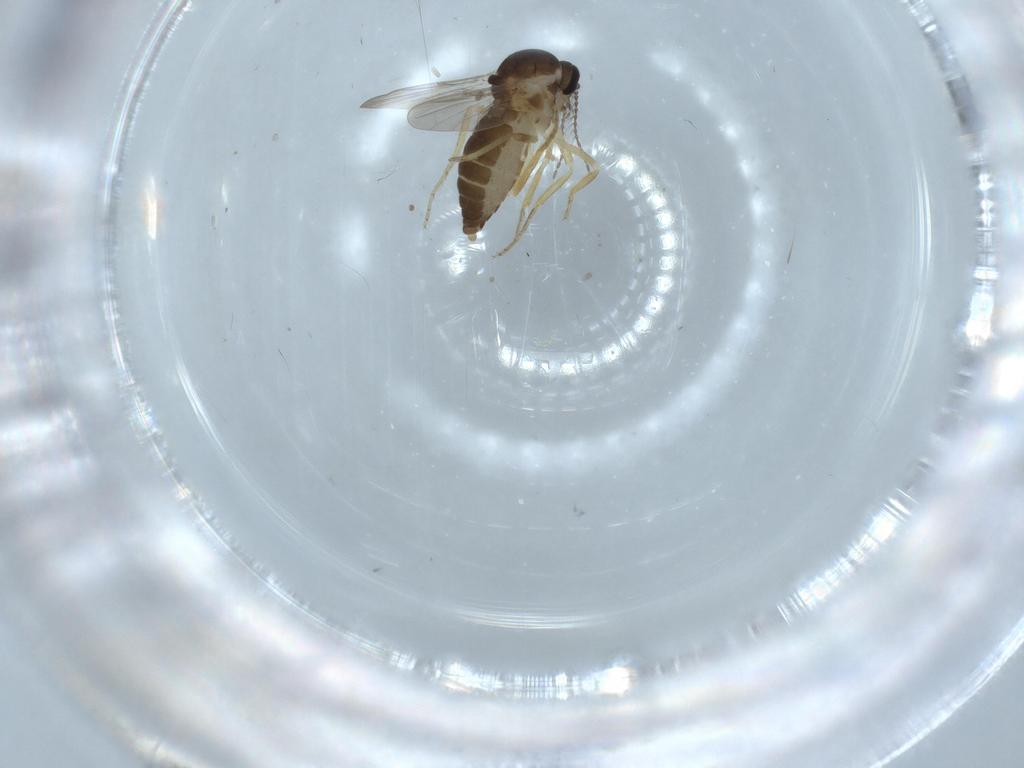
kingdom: Animalia
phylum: Arthropoda
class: Insecta
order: Diptera
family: Ceratopogonidae
